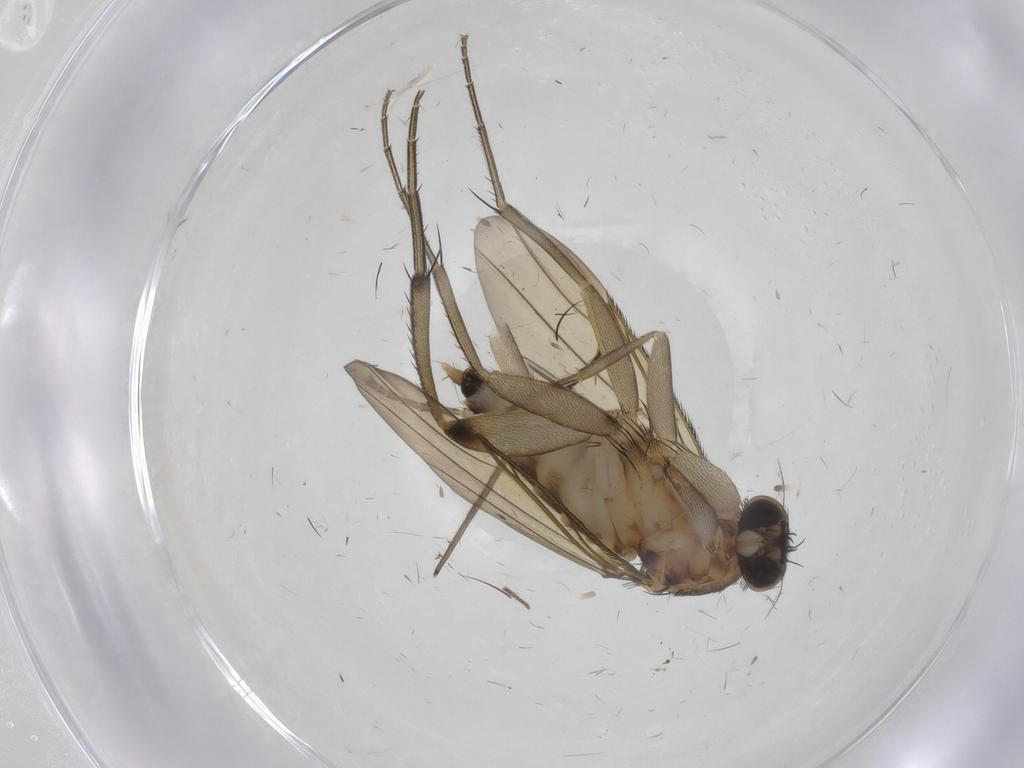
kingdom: Animalia
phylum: Arthropoda
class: Insecta
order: Diptera
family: Phoridae
